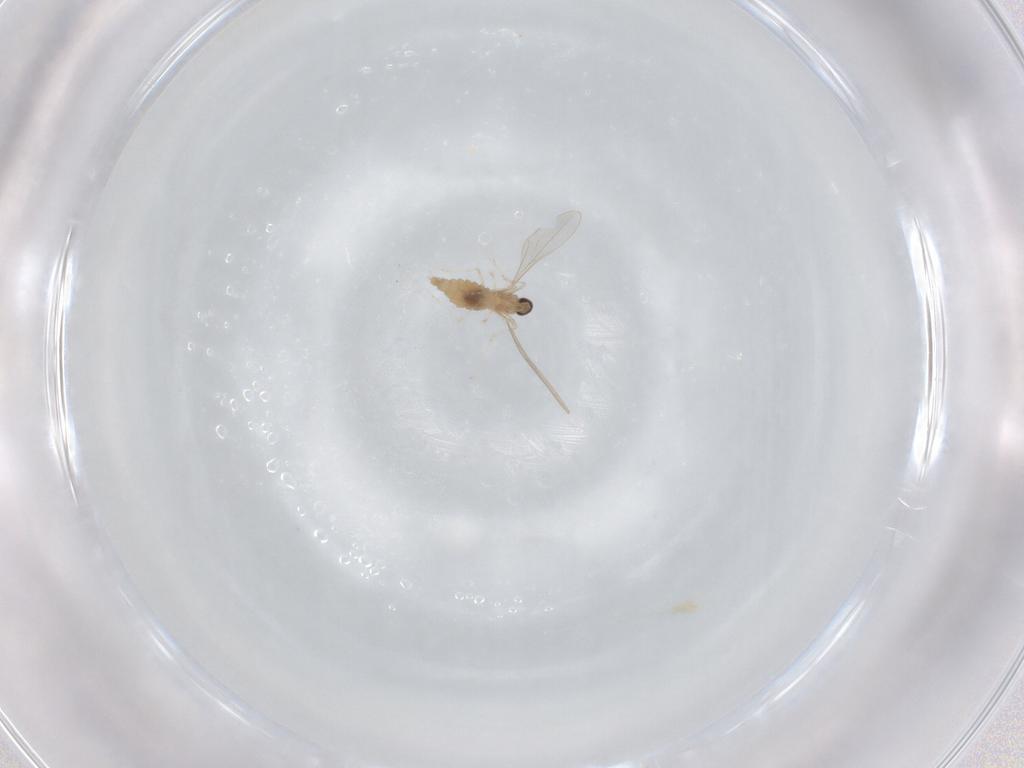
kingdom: Animalia
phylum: Arthropoda
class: Insecta
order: Diptera
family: Cecidomyiidae
